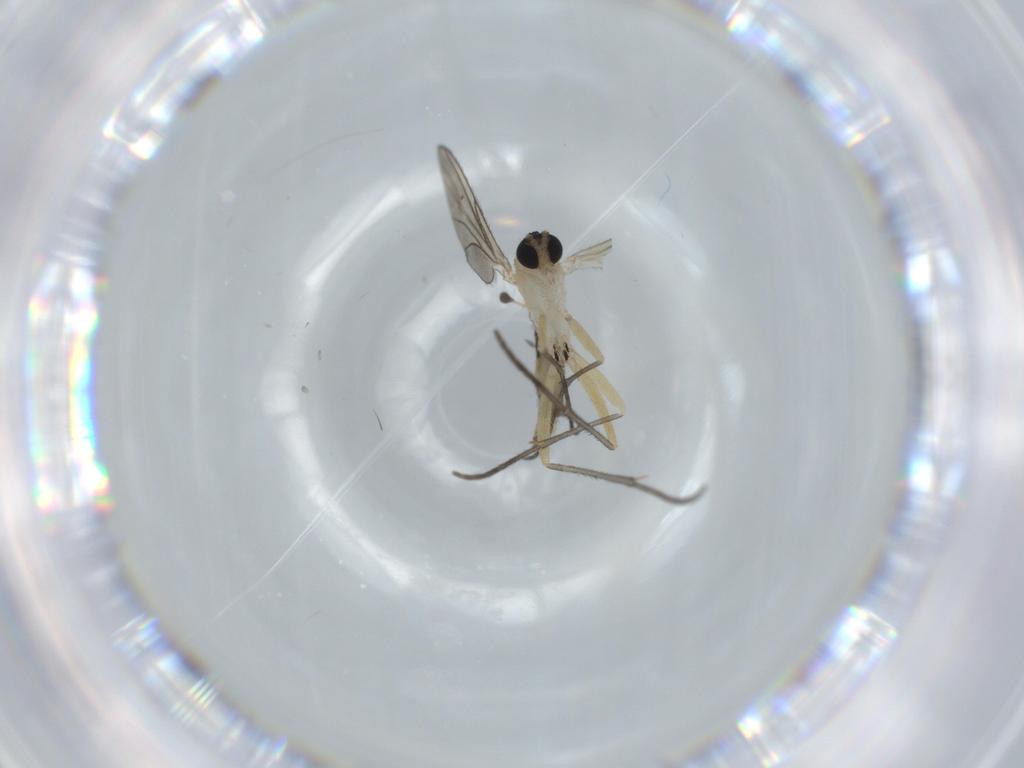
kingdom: Animalia
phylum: Arthropoda
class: Insecta
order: Diptera
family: Sciaridae
